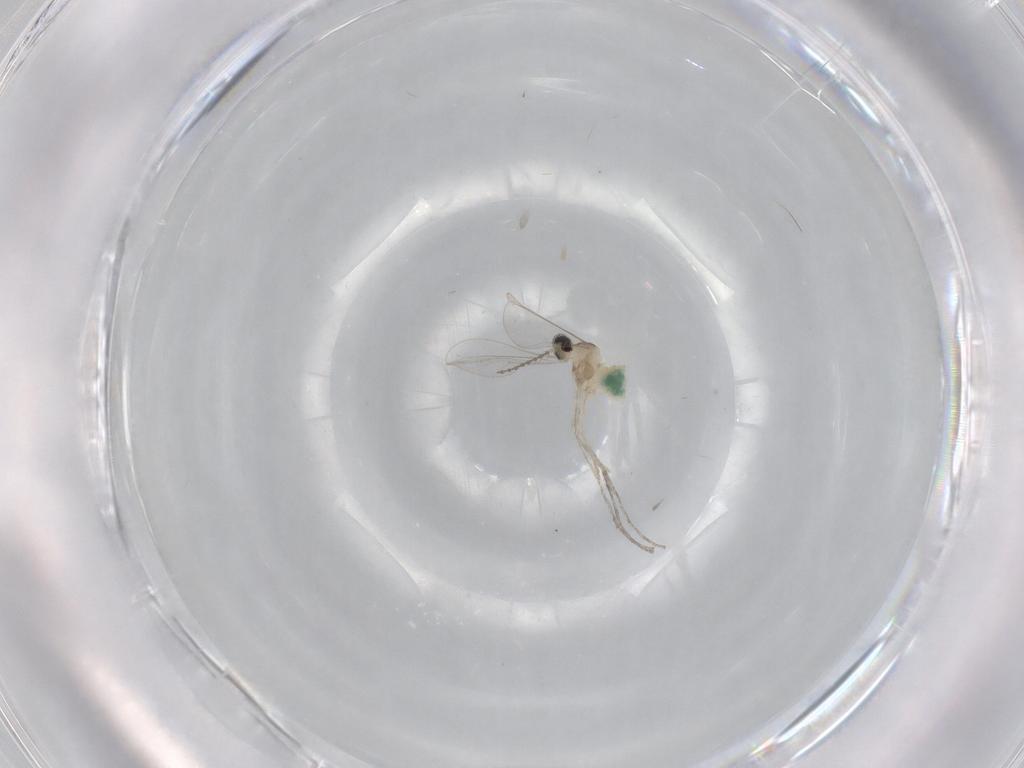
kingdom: Animalia
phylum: Arthropoda
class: Insecta
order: Diptera
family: Cecidomyiidae
